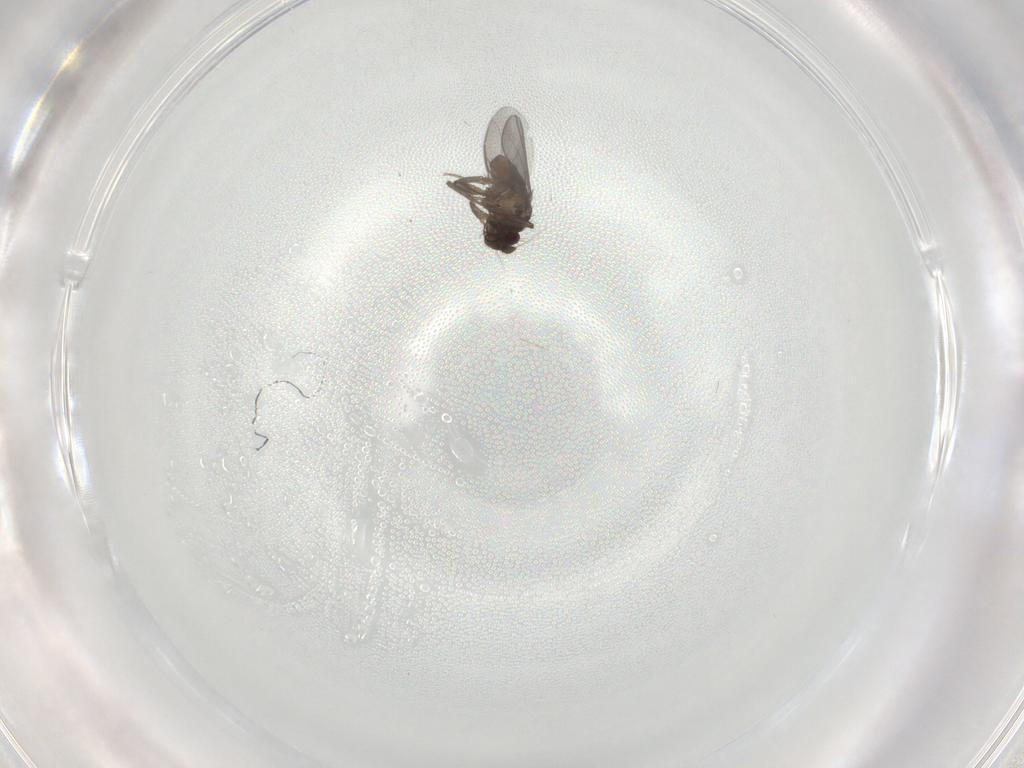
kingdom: Animalia
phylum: Arthropoda
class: Insecta
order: Diptera
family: Sphaeroceridae
